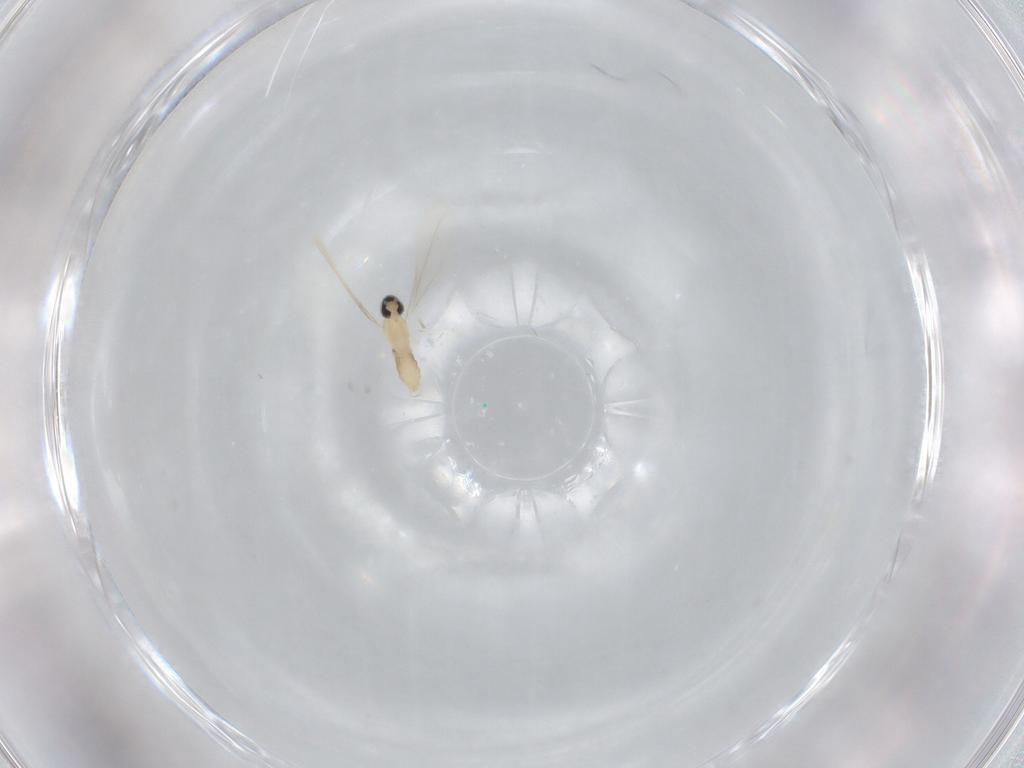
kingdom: Animalia
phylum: Arthropoda
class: Insecta
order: Diptera
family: Cecidomyiidae
